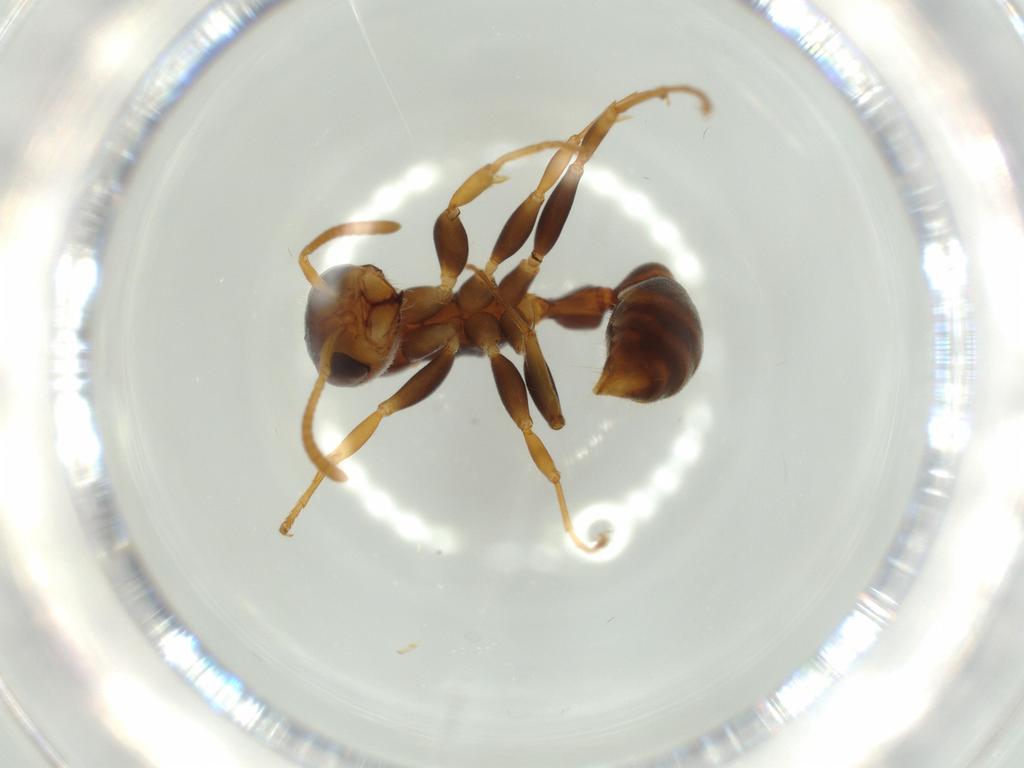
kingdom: Animalia
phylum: Arthropoda
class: Insecta
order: Hymenoptera
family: Formicidae
